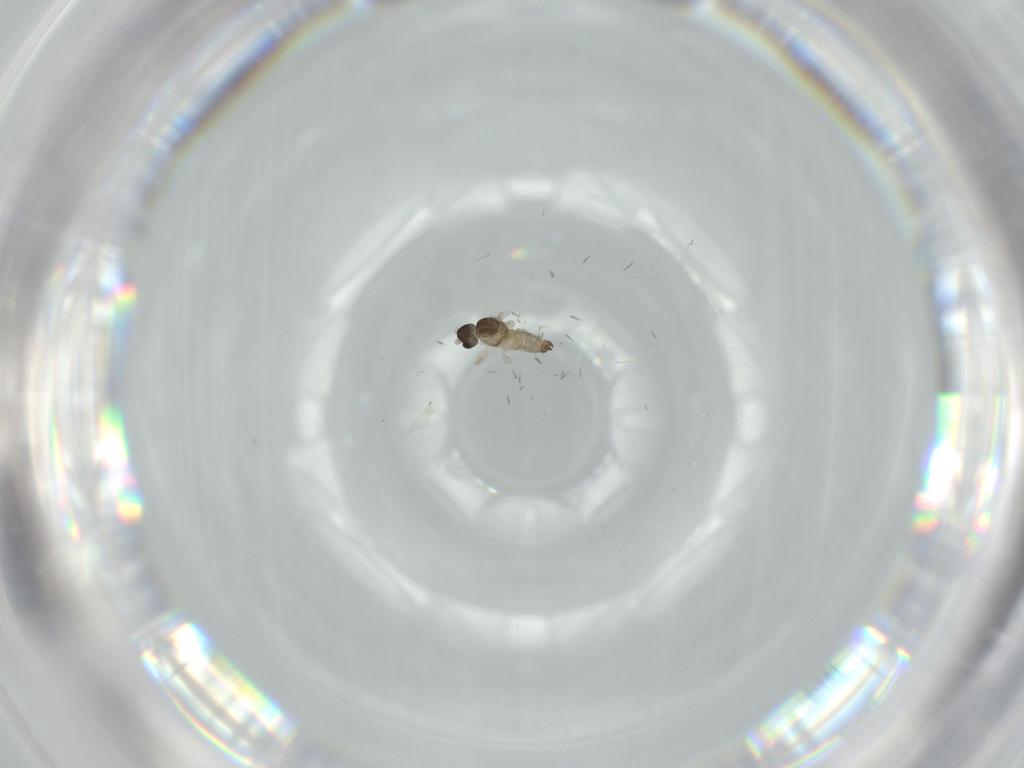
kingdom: Animalia
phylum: Arthropoda
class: Insecta
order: Diptera
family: Cecidomyiidae
